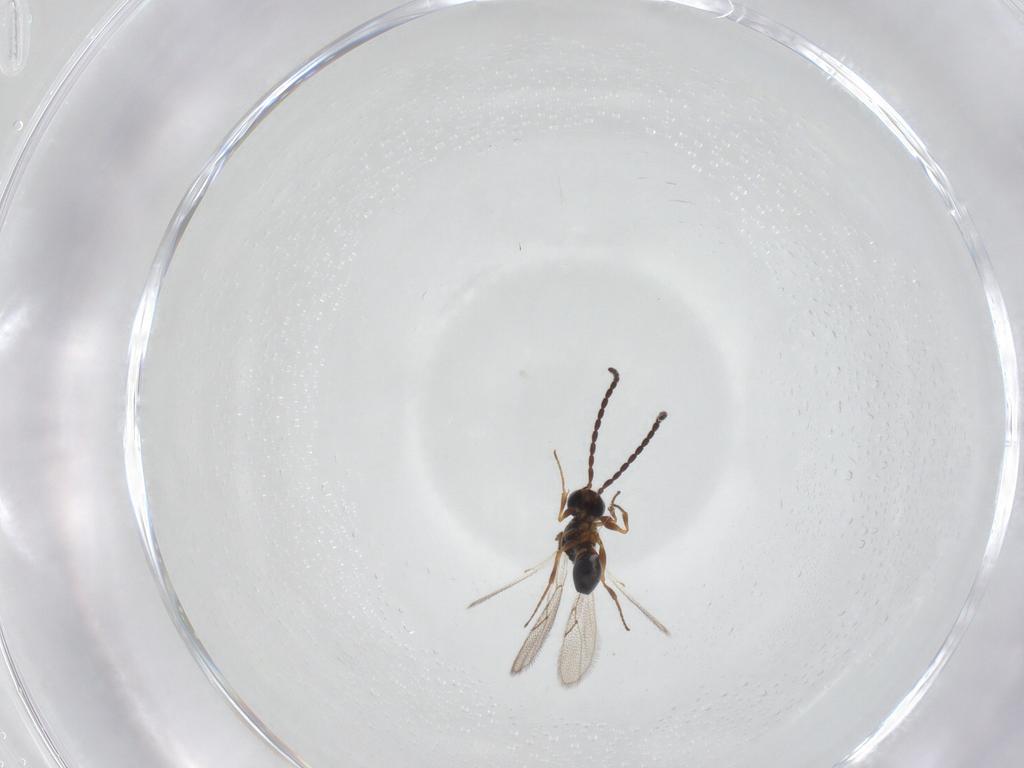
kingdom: Animalia
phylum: Arthropoda
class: Insecta
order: Hymenoptera
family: Figitidae
